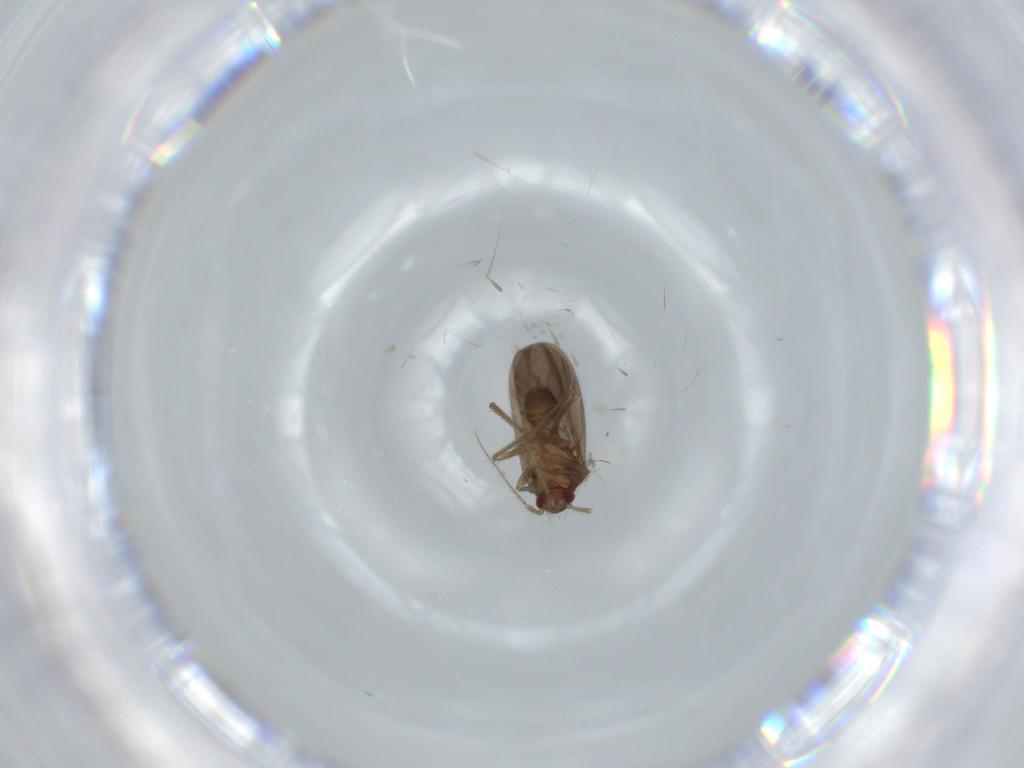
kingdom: Animalia
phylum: Arthropoda
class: Insecta
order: Hemiptera
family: Ceratocombidae
